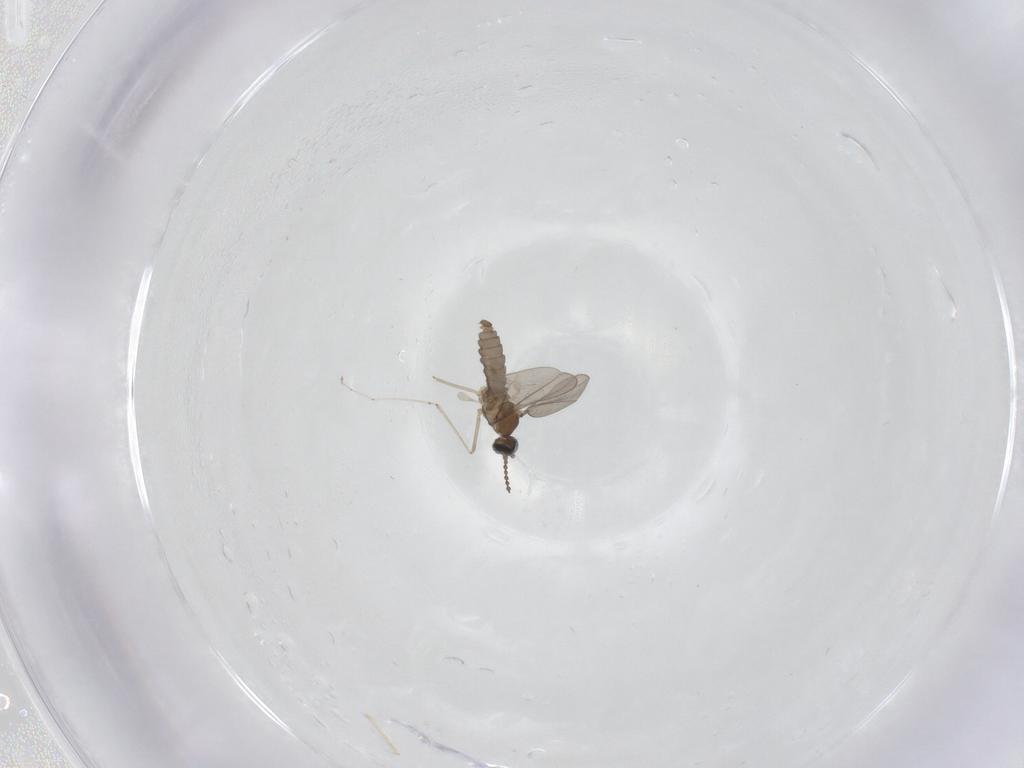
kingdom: Animalia
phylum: Arthropoda
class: Insecta
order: Diptera
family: Cecidomyiidae
